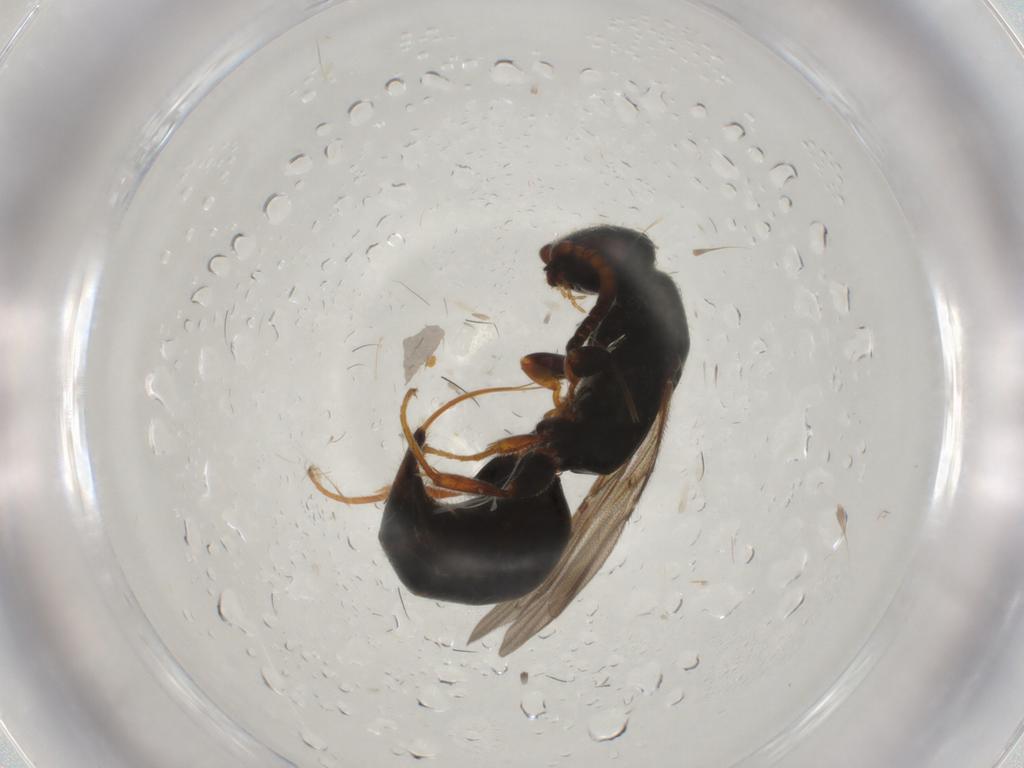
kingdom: Animalia
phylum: Arthropoda
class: Insecta
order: Hymenoptera
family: Bethylidae
